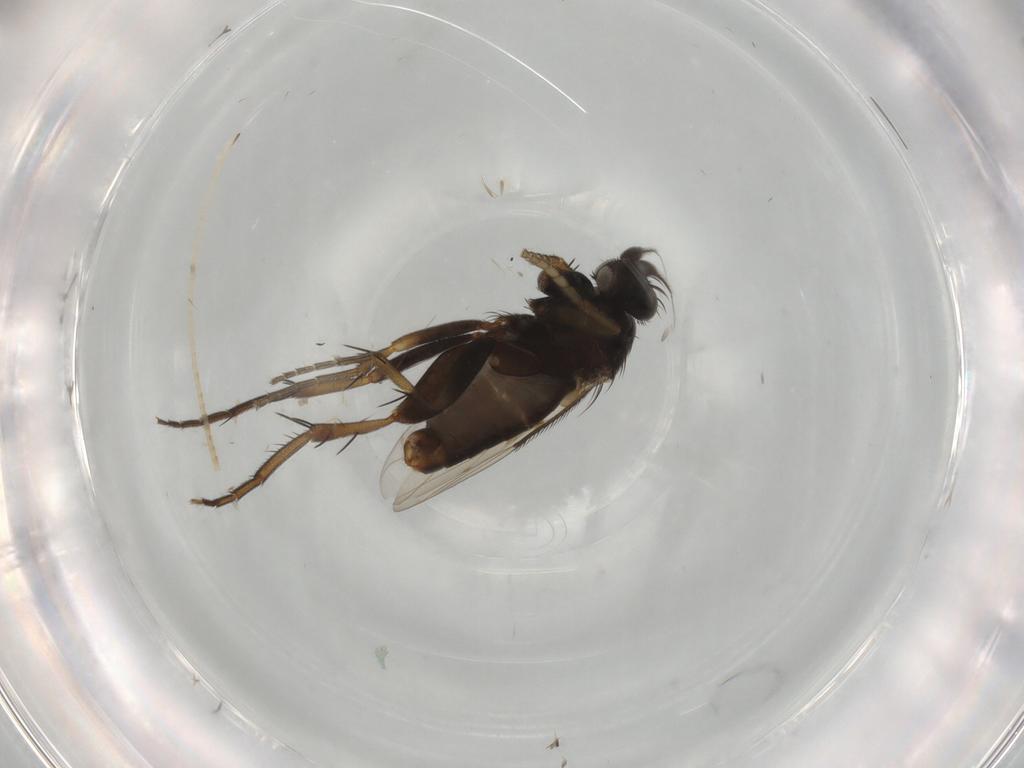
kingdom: Animalia
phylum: Arthropoda
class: Insecta
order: Diptera
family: Phoridae
